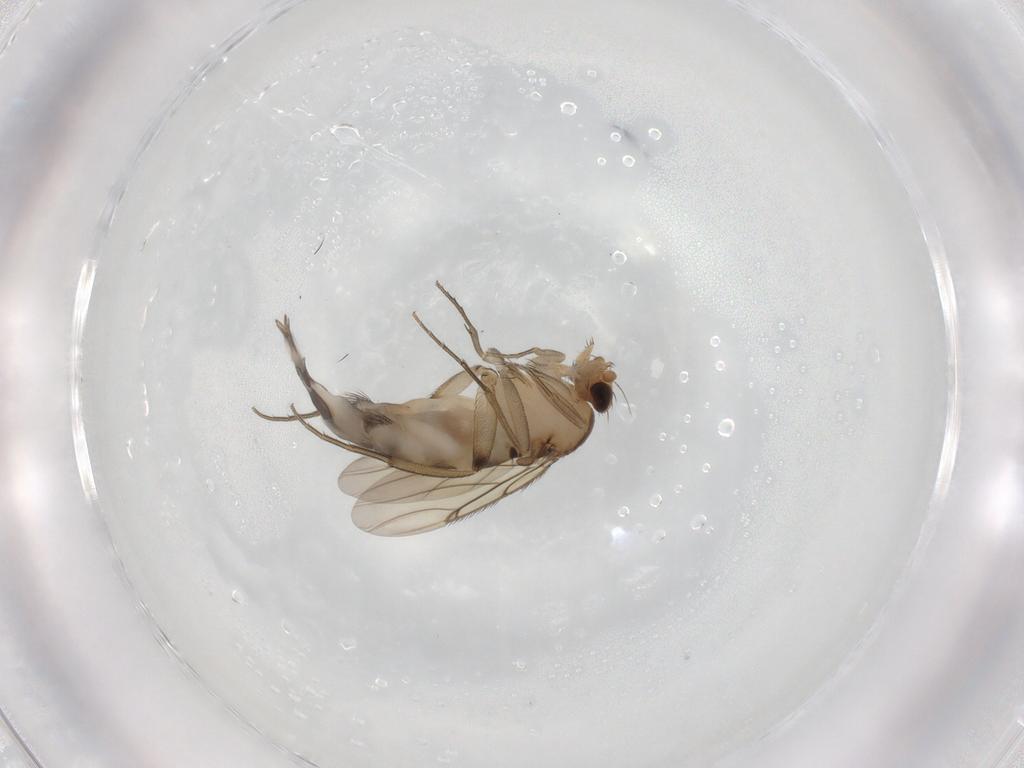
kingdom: Animalia
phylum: Arthropoda
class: Insecta
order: Diptera
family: Phoridae
